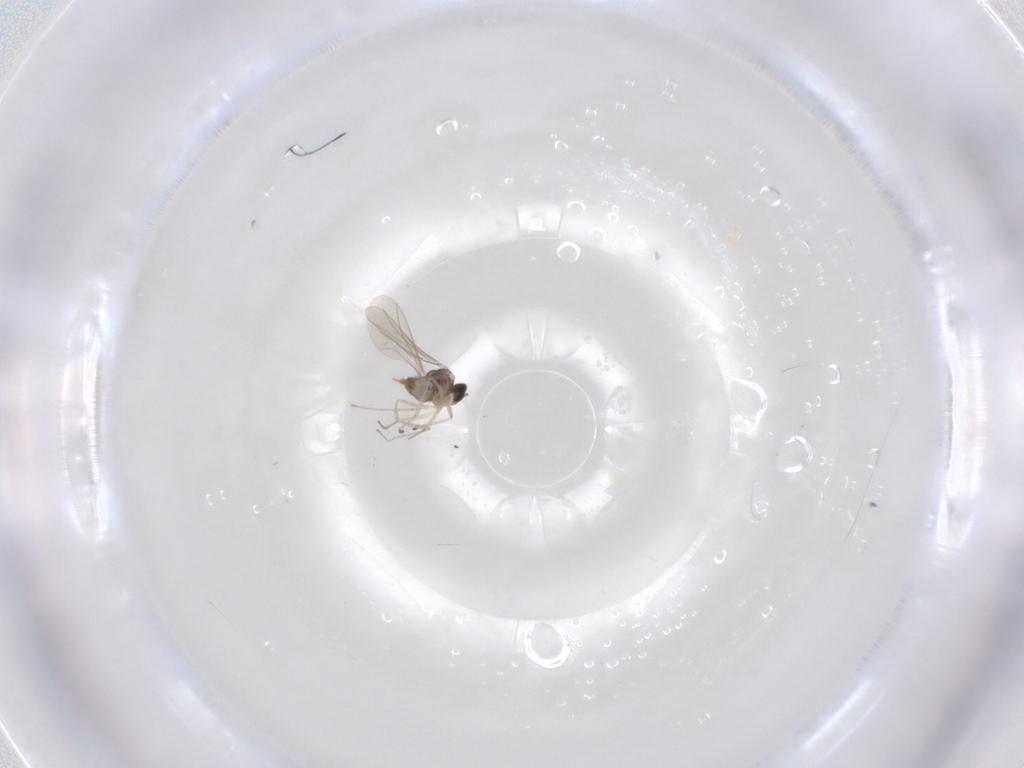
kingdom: Animalia
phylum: Arthropoda
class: Insecta
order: Diptera
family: Cecidomyiidae
